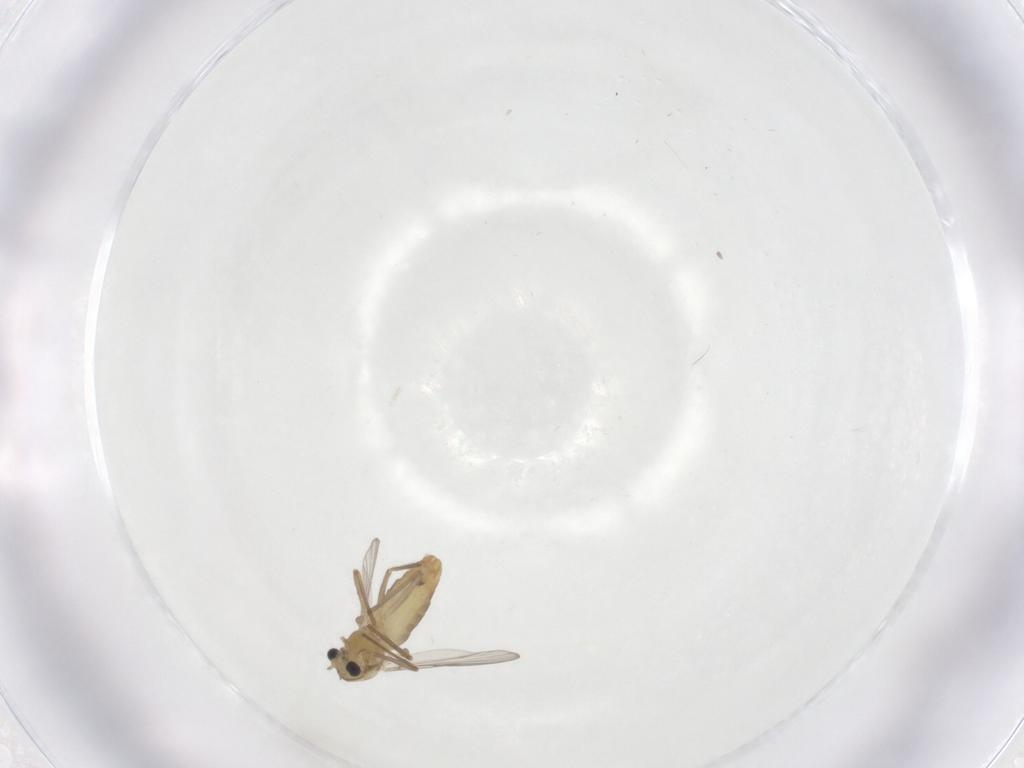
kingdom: Animalia
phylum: Arthropoda
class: Insecta
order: Diptera
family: Chironomidae
